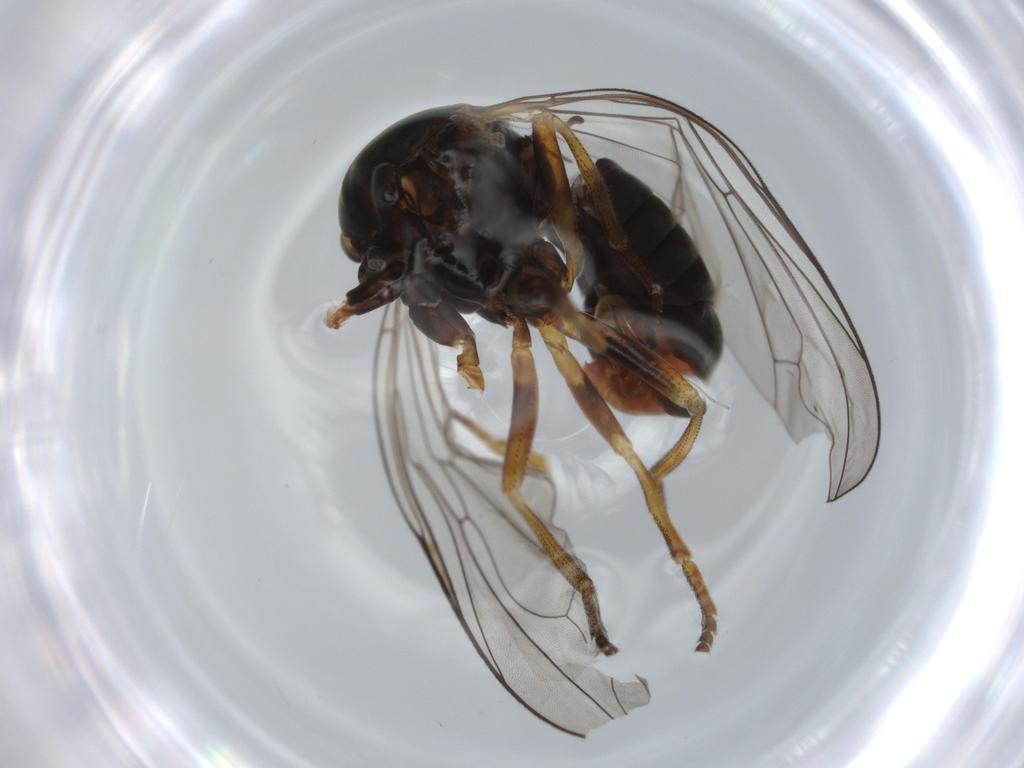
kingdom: Animalia
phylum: Arthropoda
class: Insecta
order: Diptera
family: Pipunculidae
